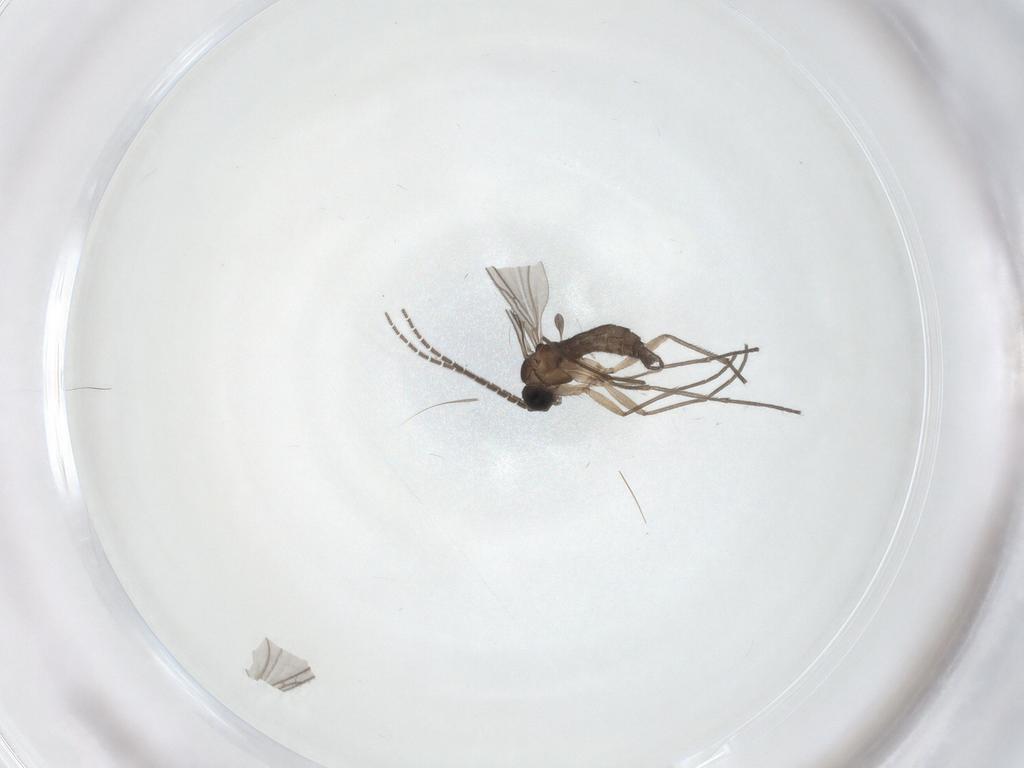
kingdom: Animalia
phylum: Arthropoda
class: Insecta
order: Diptera
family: Sciaridae
